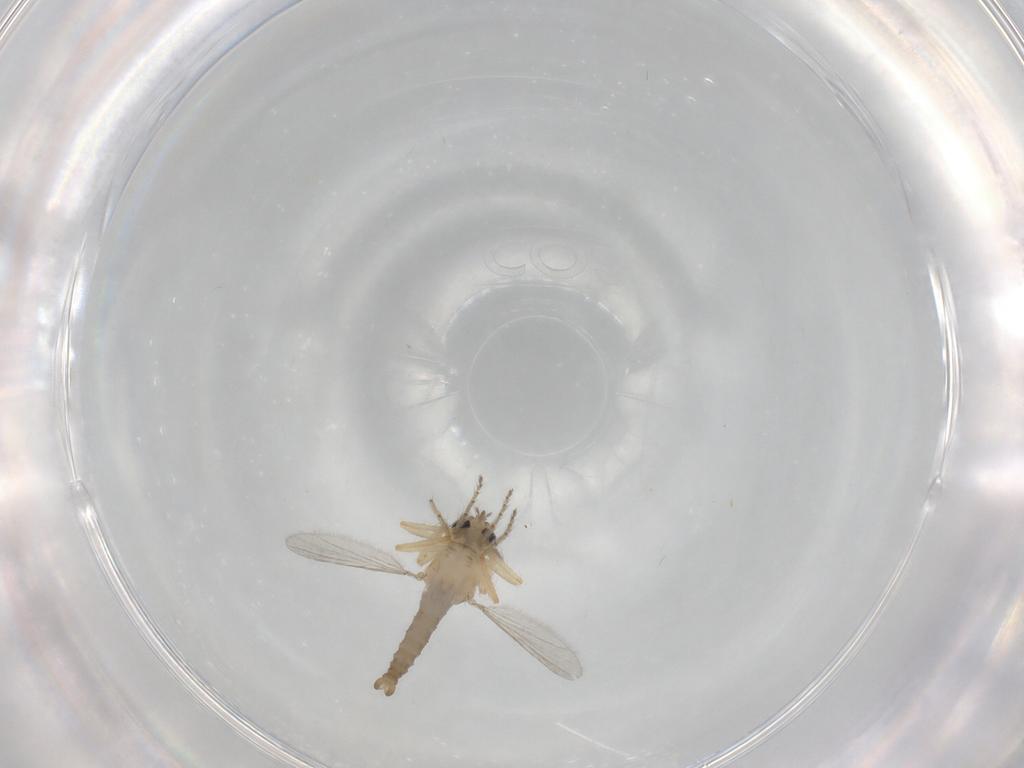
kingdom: Animalia
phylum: Arthropoda
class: Insecta
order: Diptera
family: Ceratopogonidae
